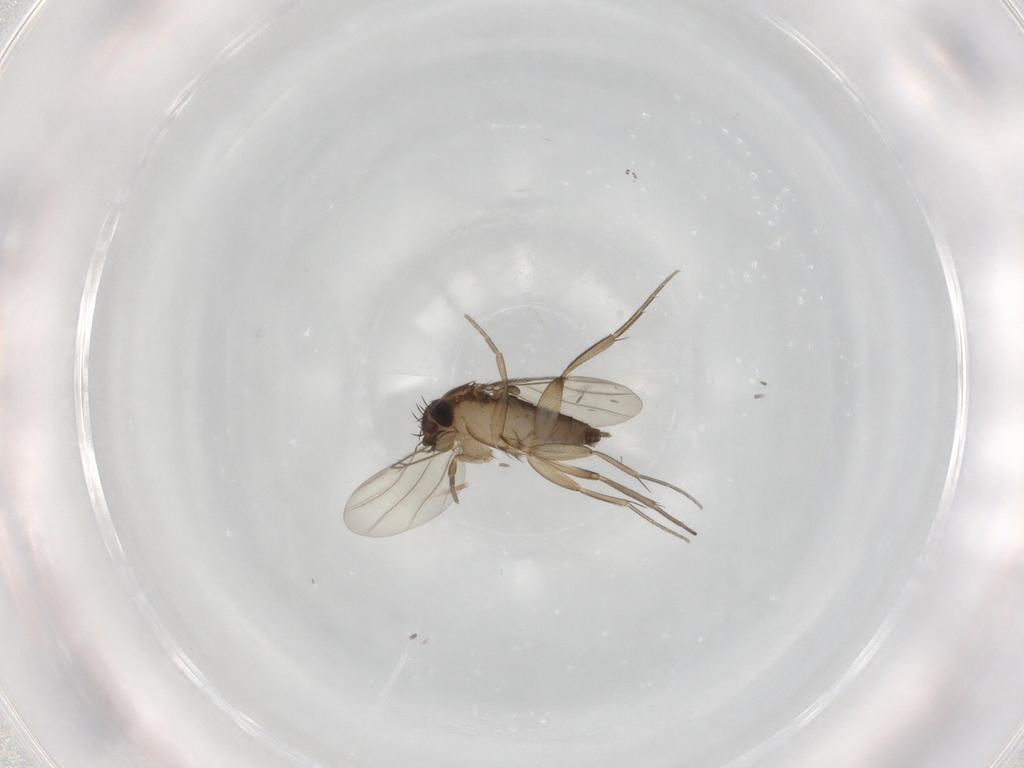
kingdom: Animalia
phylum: Arthropoda
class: Insecta
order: Diptera
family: Phoridae
